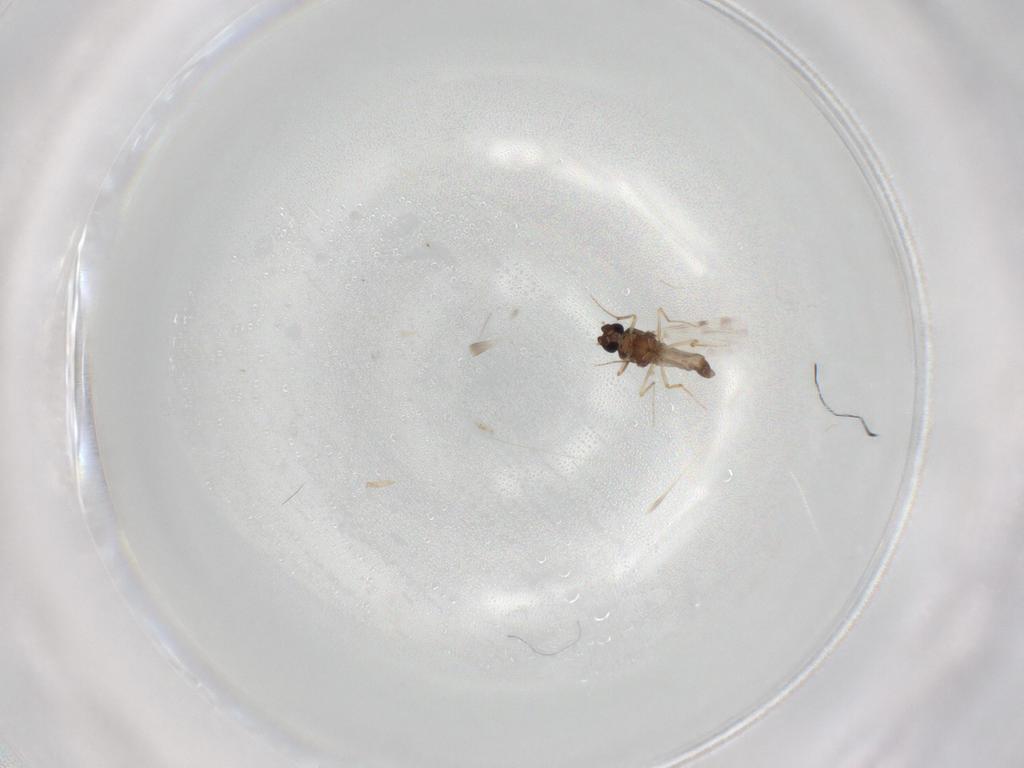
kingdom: Animalia
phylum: Arthropoda
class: Insecta
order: Diptera
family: Ceratopogonidae
